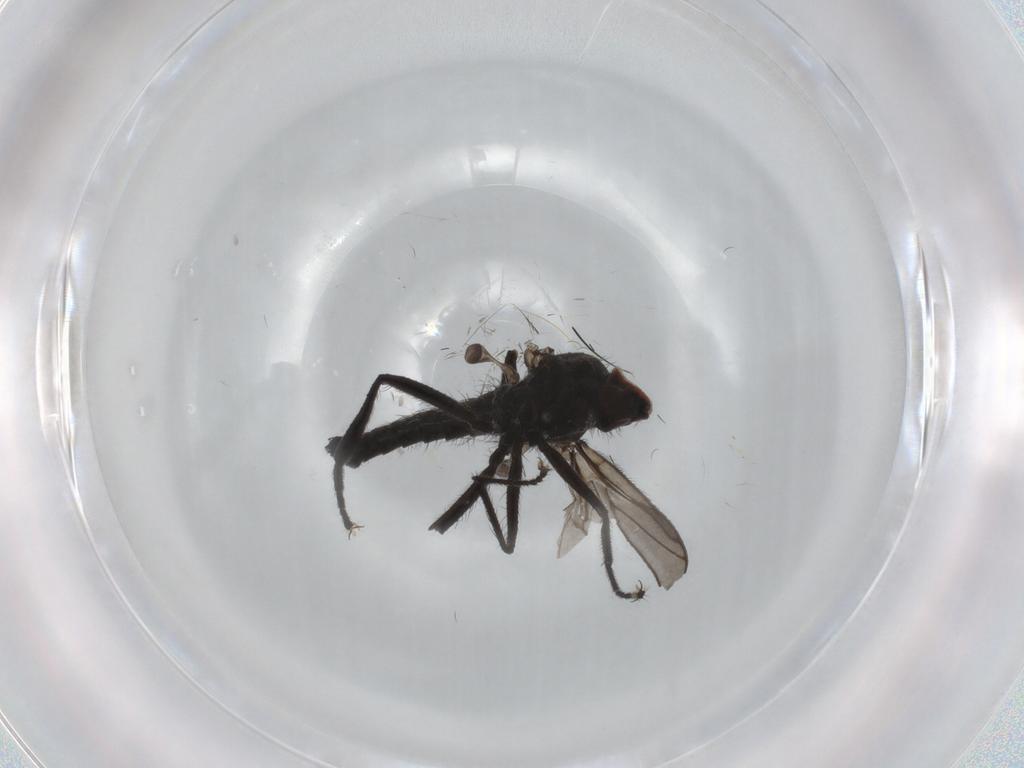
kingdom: Animalia
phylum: Arthropoda
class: Insecta
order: Diptera
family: Hybotidae
